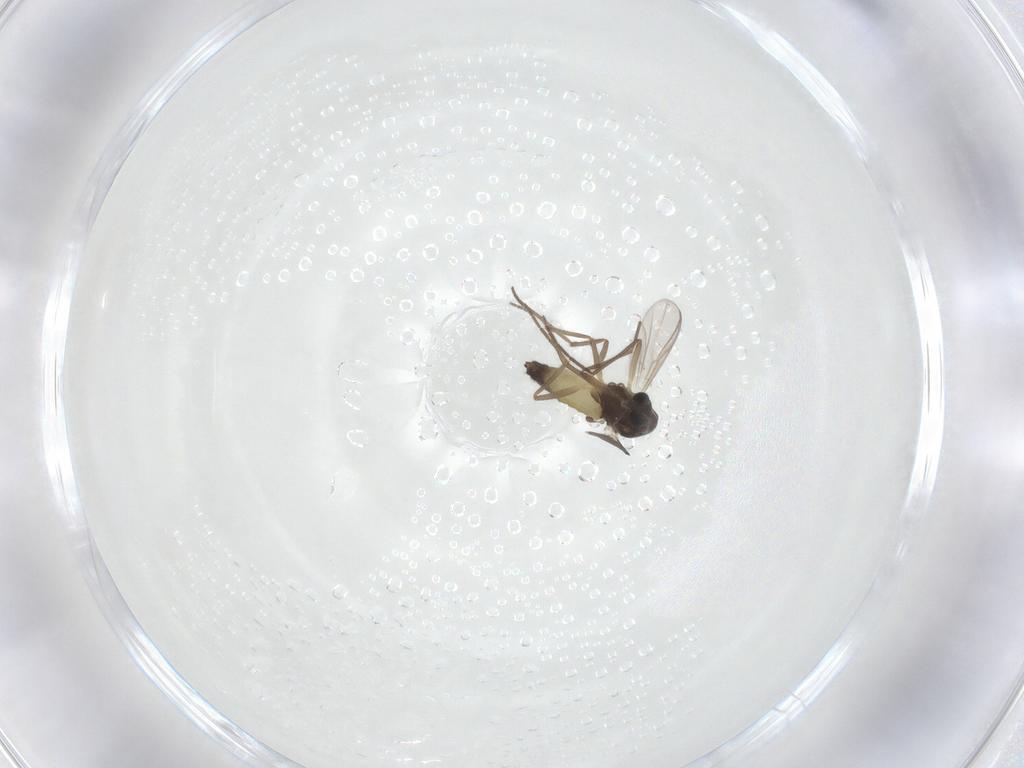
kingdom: Animalia
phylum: Arthropoda
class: Insecta
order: Diptera
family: Chironomidae
